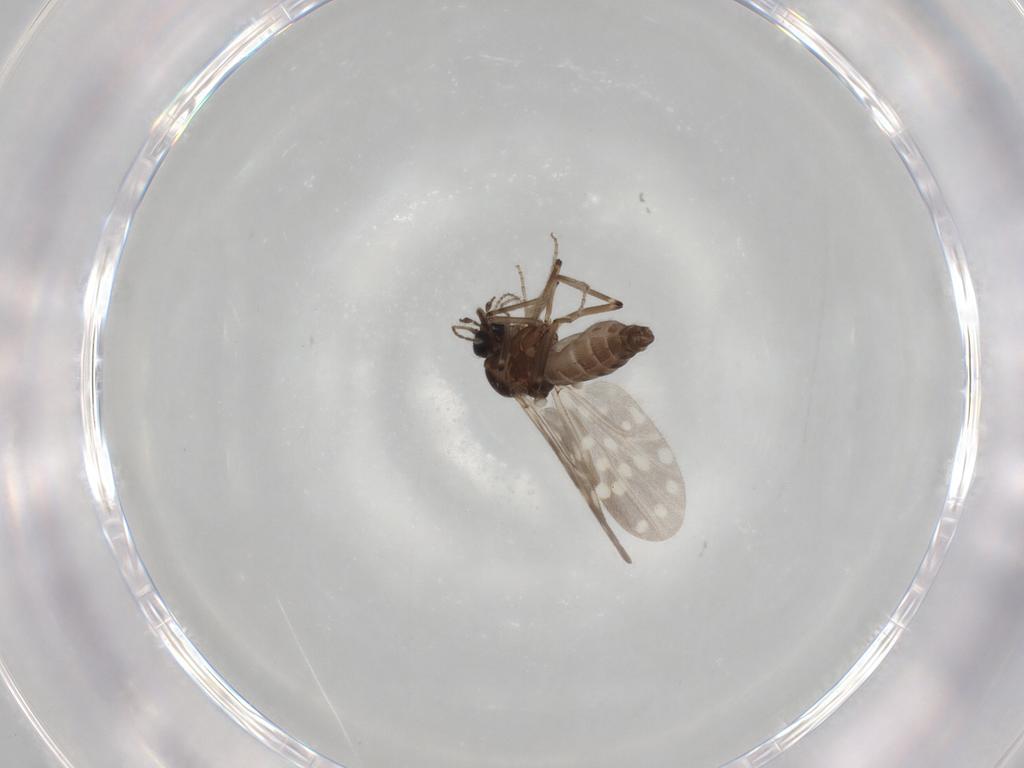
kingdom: Animalia
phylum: Arthropoda
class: Insecta
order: Diptera
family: Ceratopogonidae
